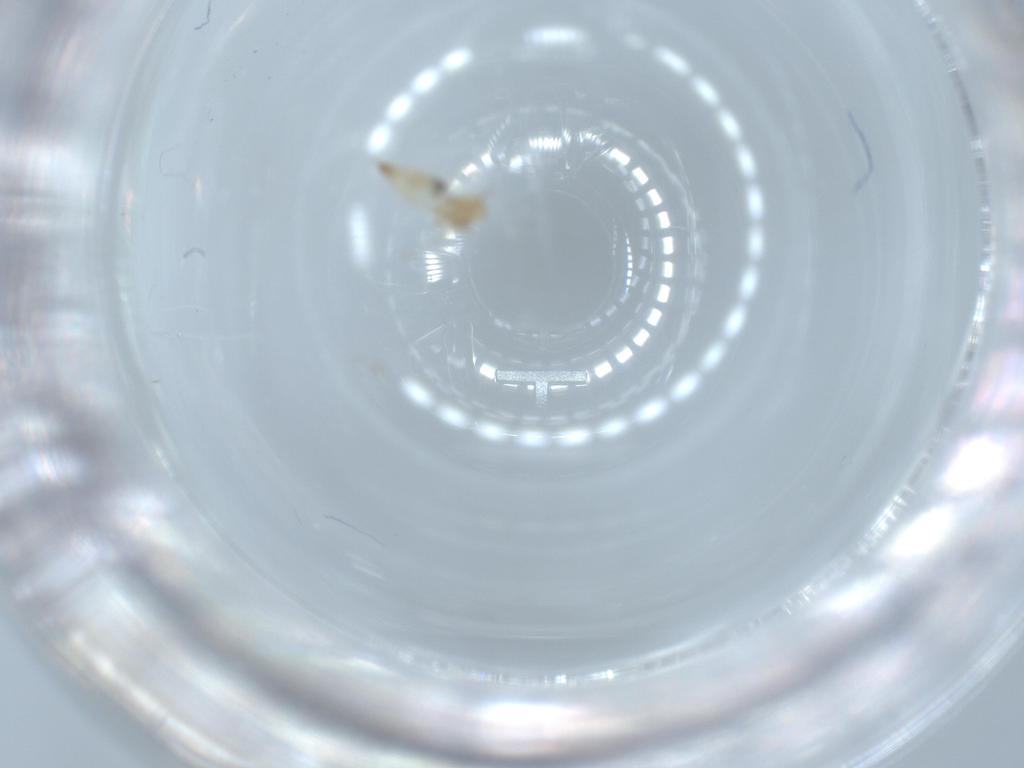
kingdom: Animalia
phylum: Arthropoda
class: Insecta
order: Diptera
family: Cecidomyiidae
